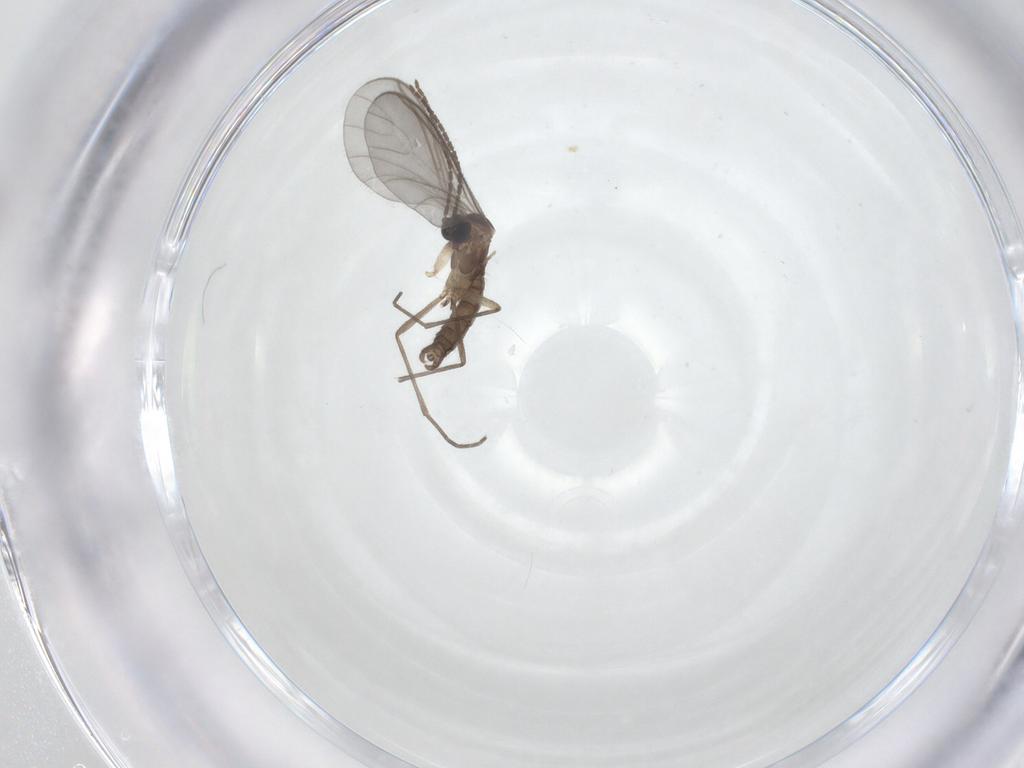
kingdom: Animalia
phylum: Arthropoda
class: Insecta
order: Diptera
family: Sciaridae
